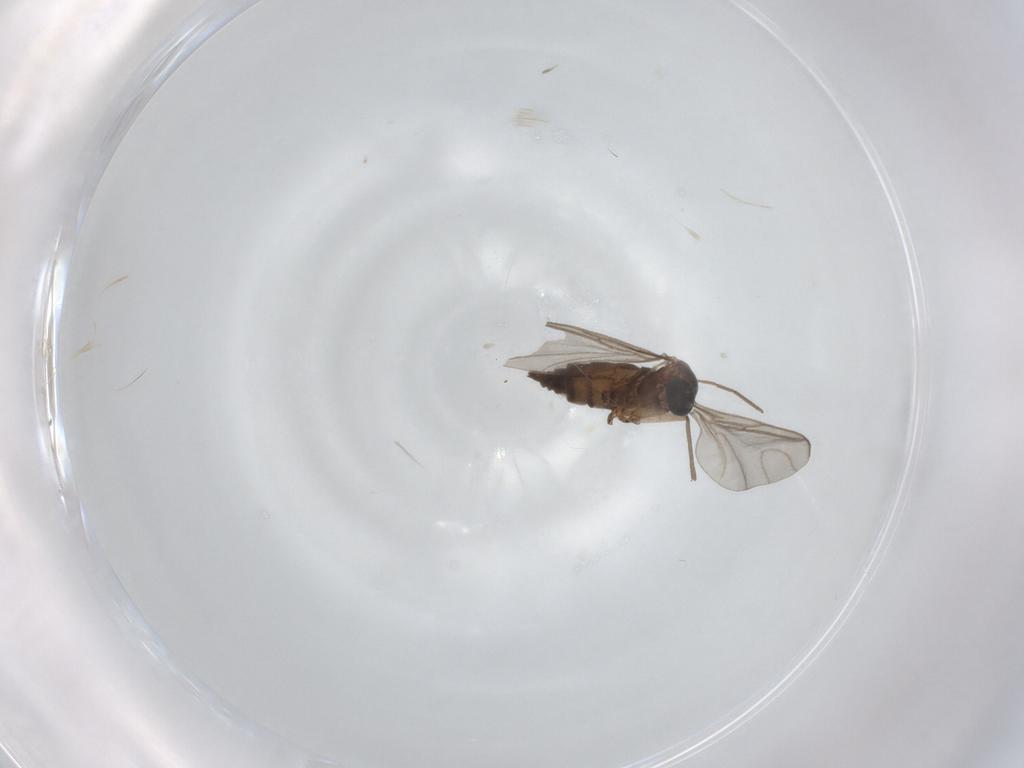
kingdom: Animalia
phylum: Arthropoda
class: Insecta
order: Diptera
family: Chironomidae
